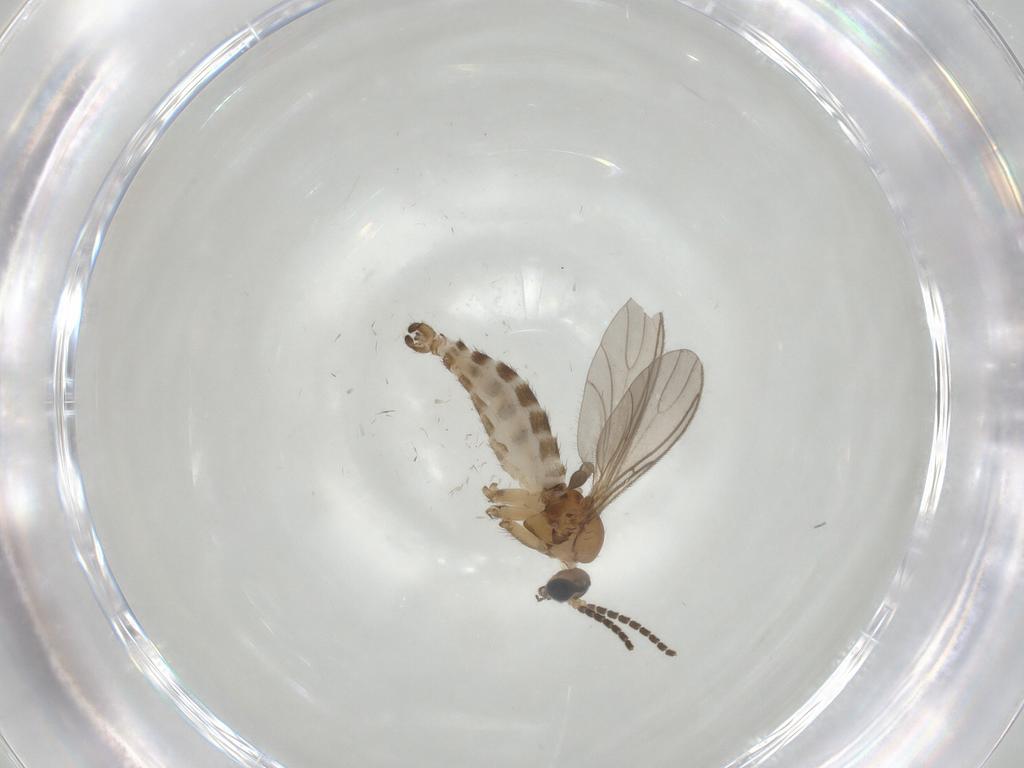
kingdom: Animalia
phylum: Arthropoda
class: Insecta
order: Diptera
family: Sciaridae
